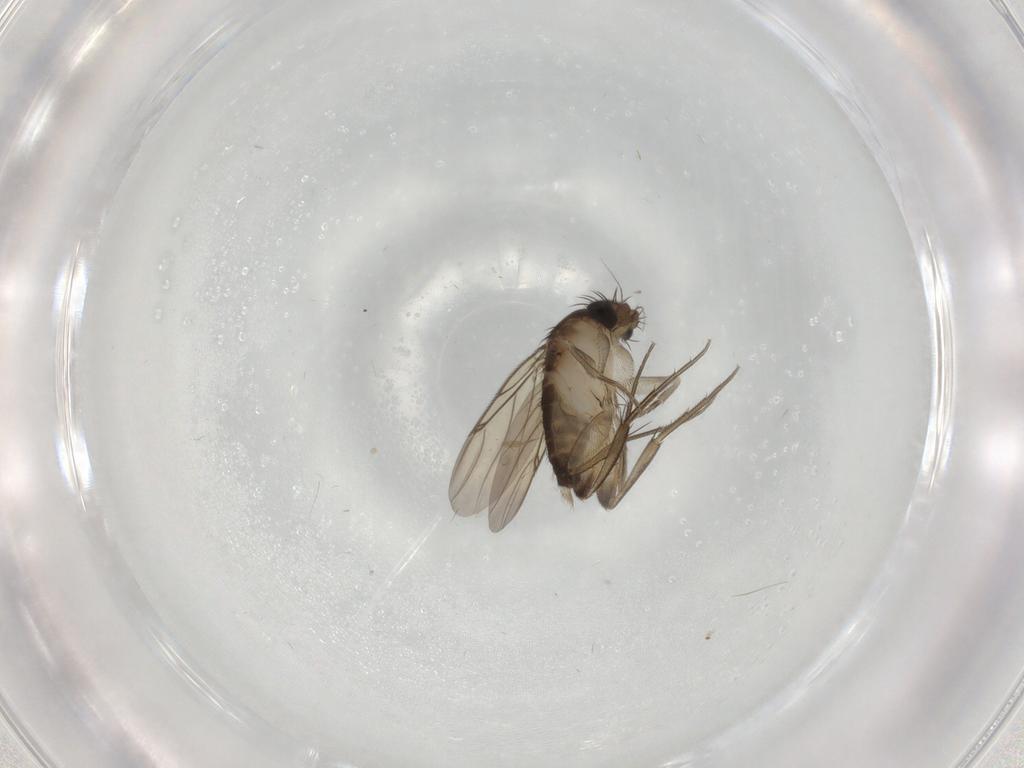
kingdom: Animalia
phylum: Arthropoda
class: Insecta
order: Diptera
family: Phoridae
